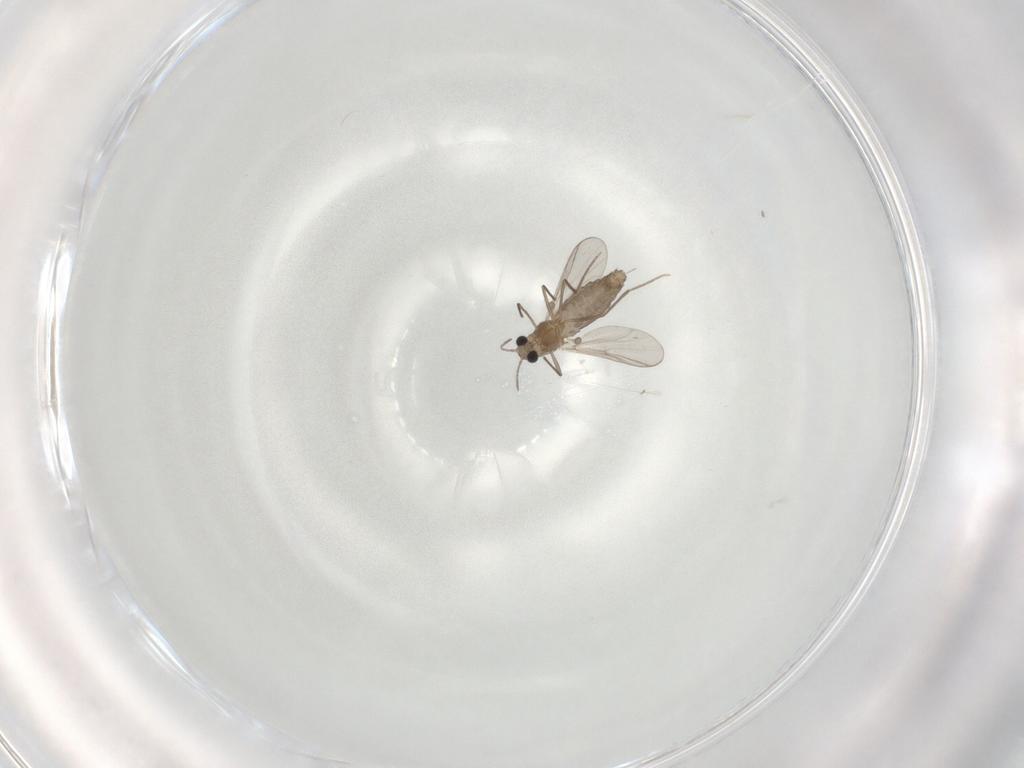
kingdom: Animalia
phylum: Arthropoda
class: Insecta
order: Diptera
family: Chironomidae
